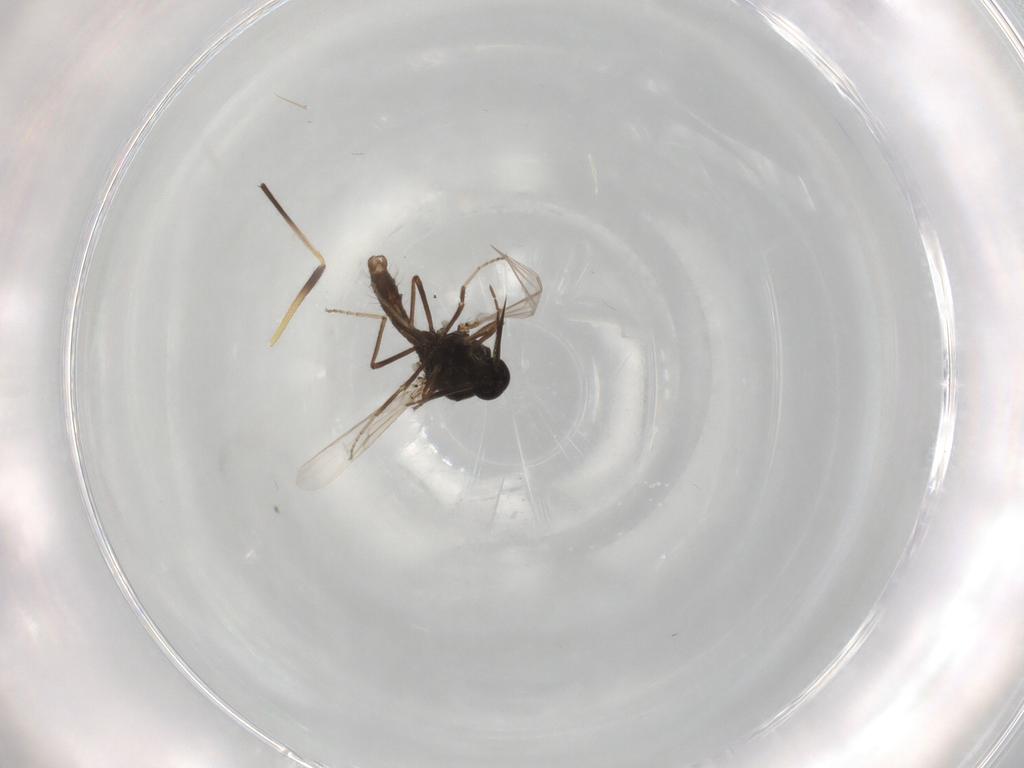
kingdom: Animalia
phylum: Arthropoda
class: Insecta
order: Diptera
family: Ceratopogonidae
